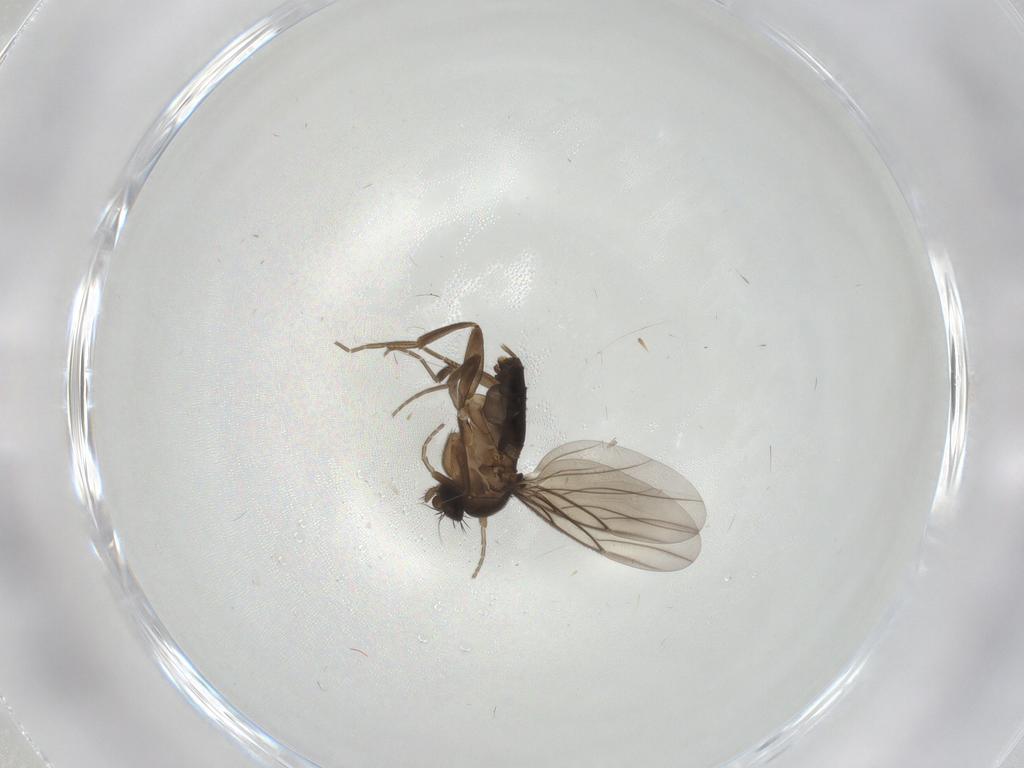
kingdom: Animalia
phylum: Arthropoda
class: Insecta
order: Diptera
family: Phoridae
